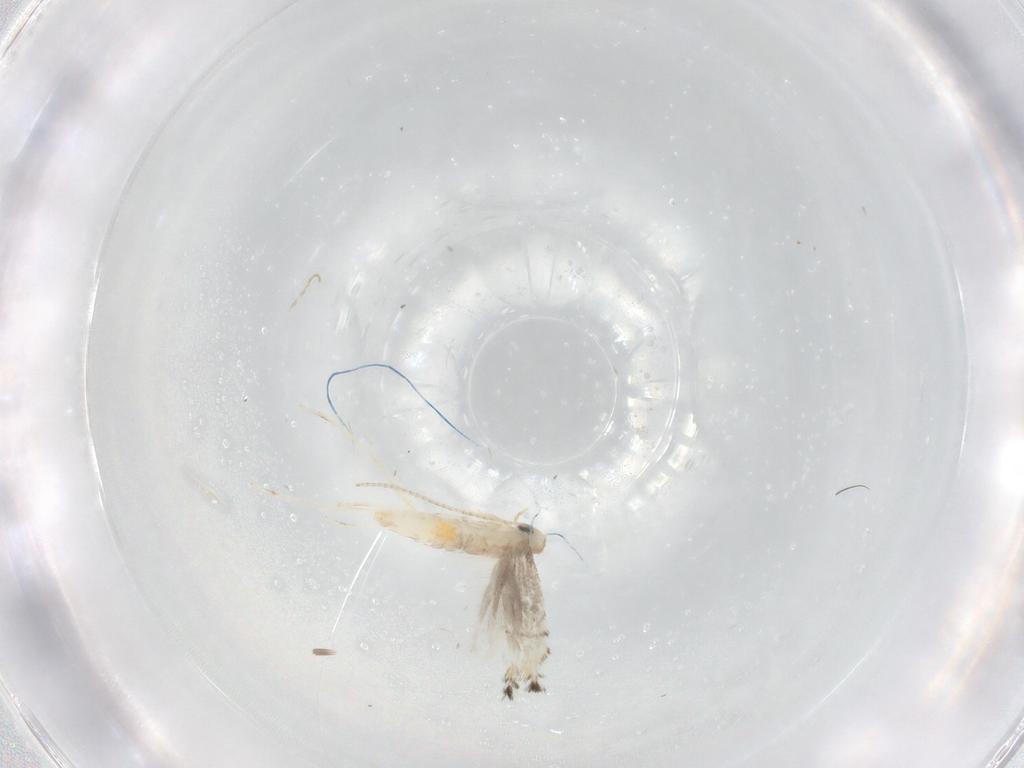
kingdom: Animalia
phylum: Arthropoda
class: Insecta
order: Lepidoptera
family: Gracillariidae
